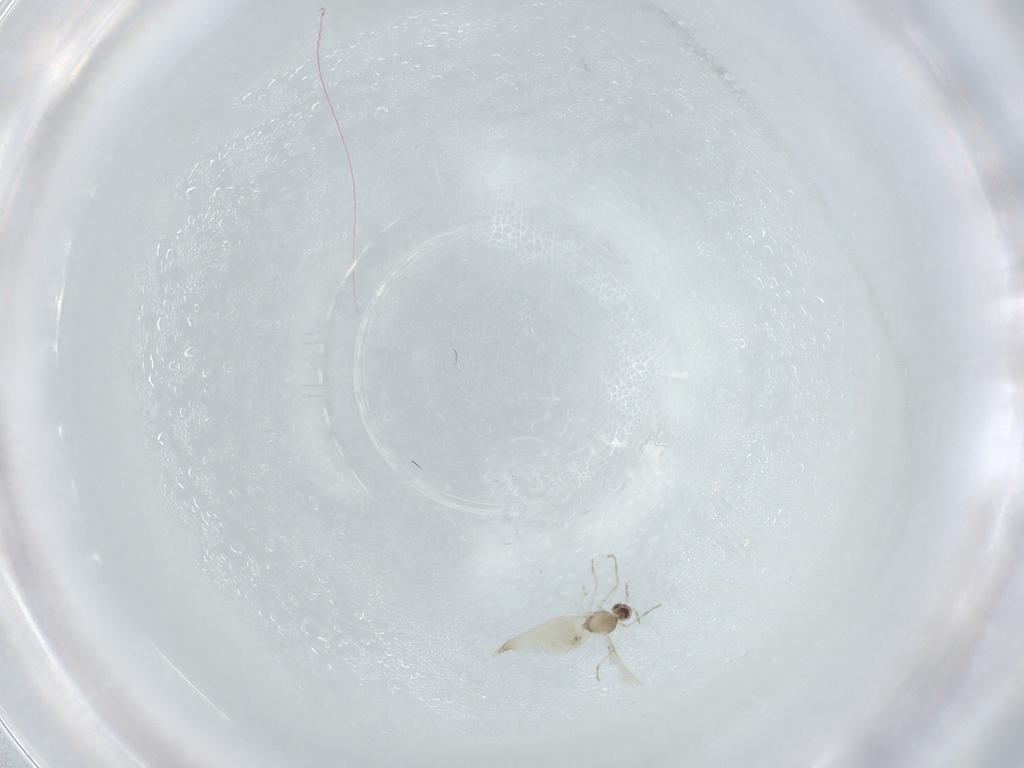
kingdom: Animalia
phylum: Arthropoda
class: Insecta
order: Diptera
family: Cecidomyiidae
